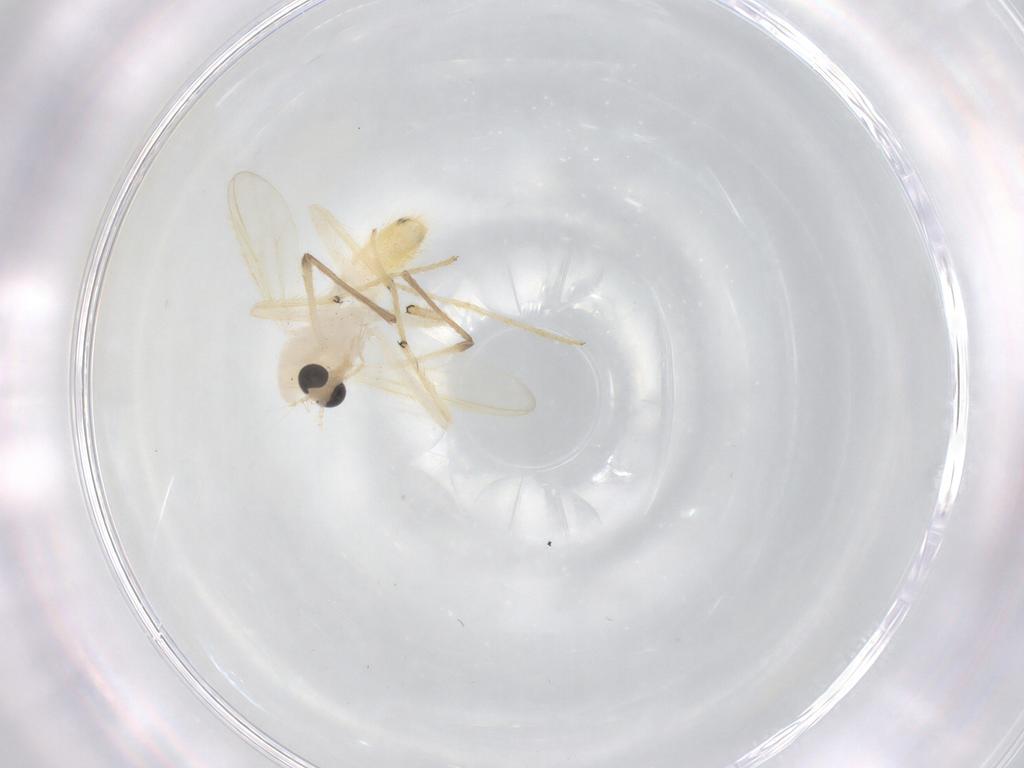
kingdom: Animalia
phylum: Arthropoda
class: Insecta
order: Diptera
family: Chironomidae
